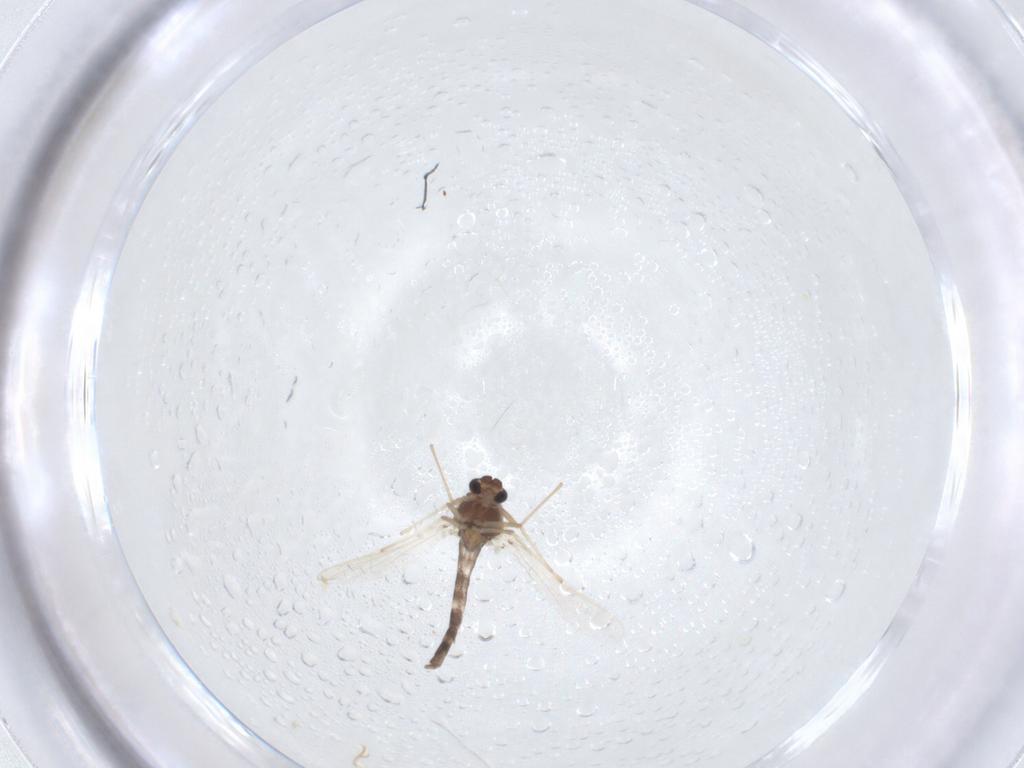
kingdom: Animalia
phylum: Arthropoda
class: Insecta
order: Diptera
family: Chironomidae
